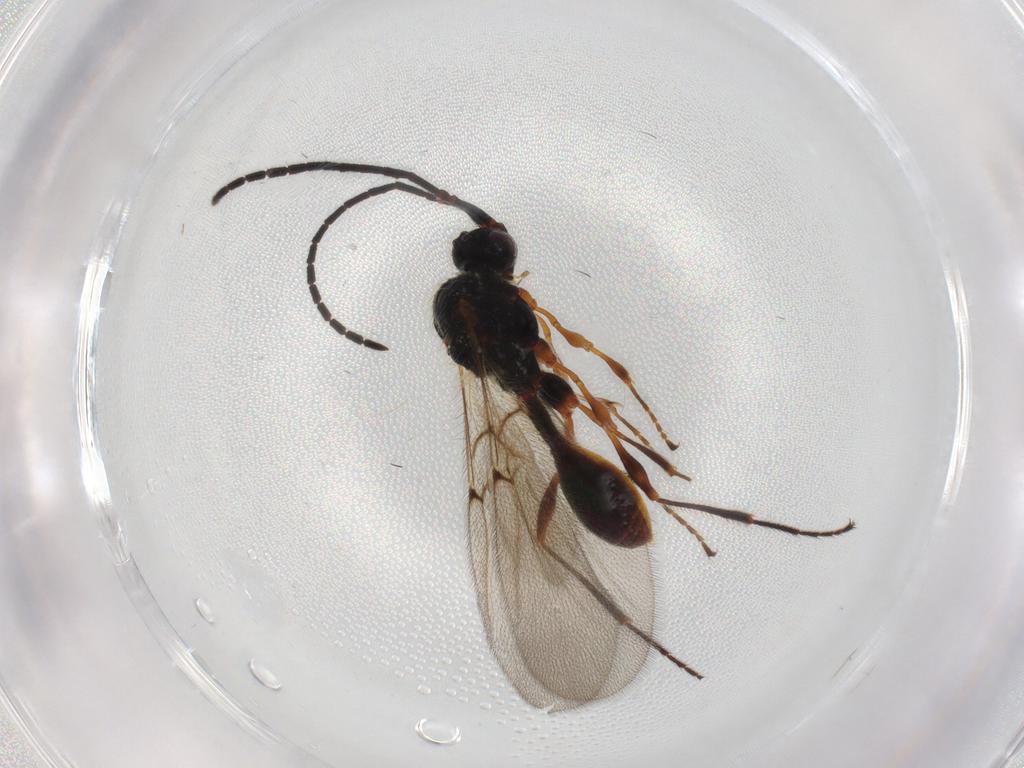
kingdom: Animalia
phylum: Arthropoda
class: Insecta
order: Hymenoptera
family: Diapriidae
